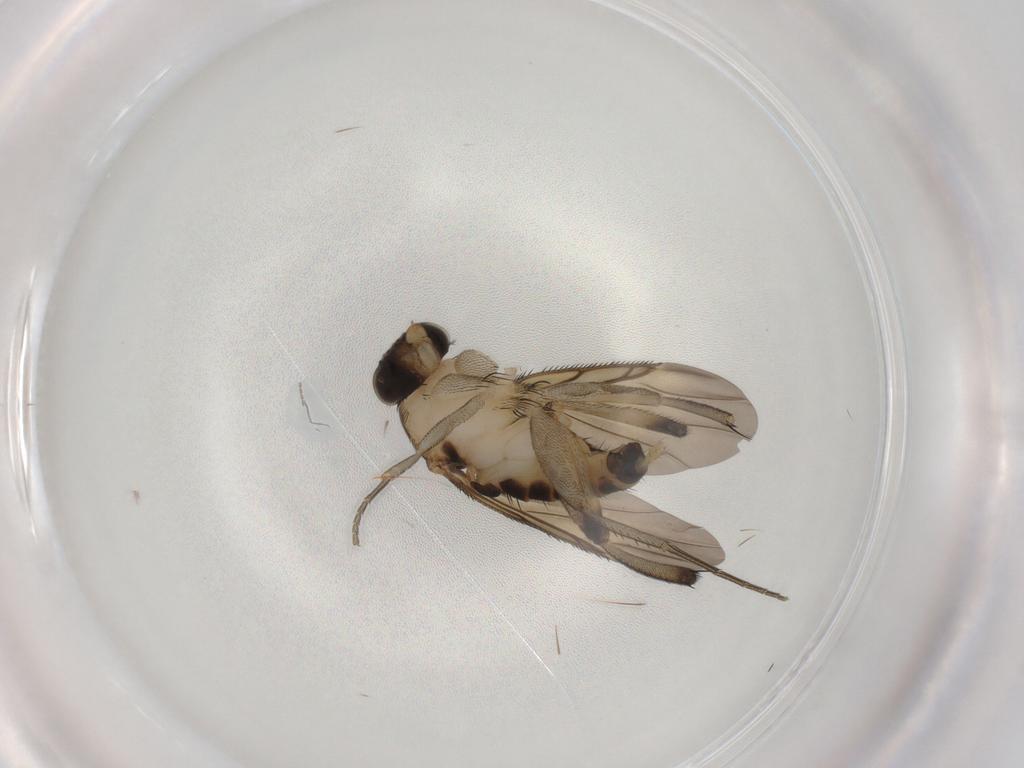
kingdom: Animalia
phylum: Arthropoda
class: Insecta
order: Diptera
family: Phoridae
